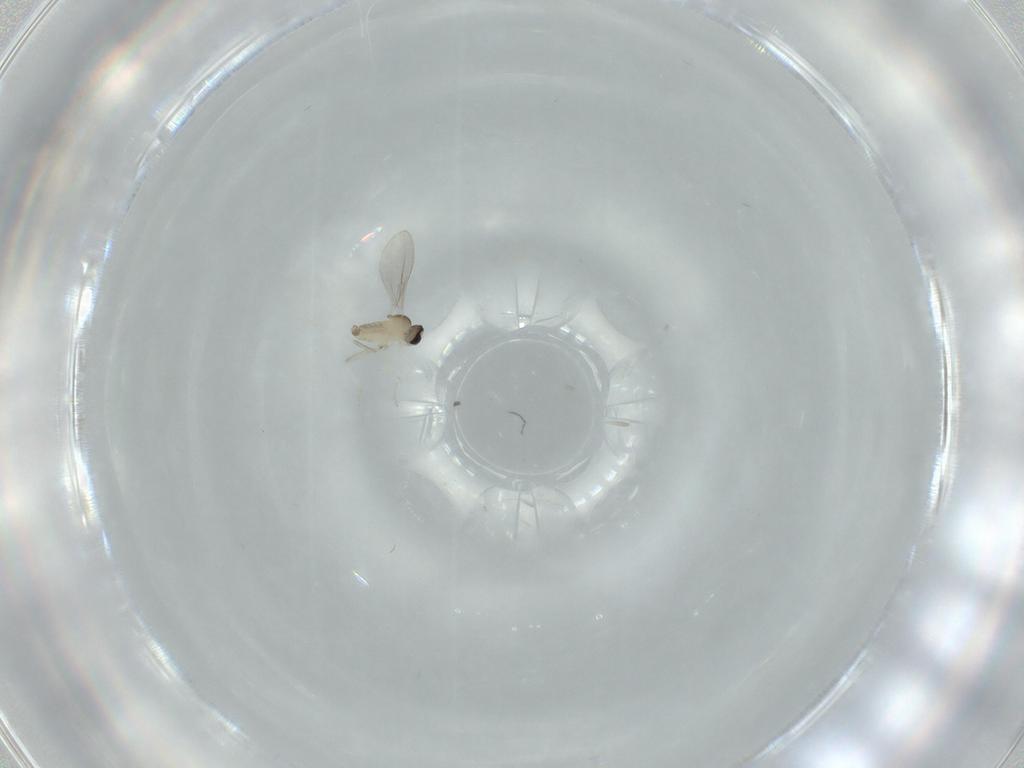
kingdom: Animalia
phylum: Arthropoda
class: Insecta
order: Diptera
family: Cecidomyiidae
